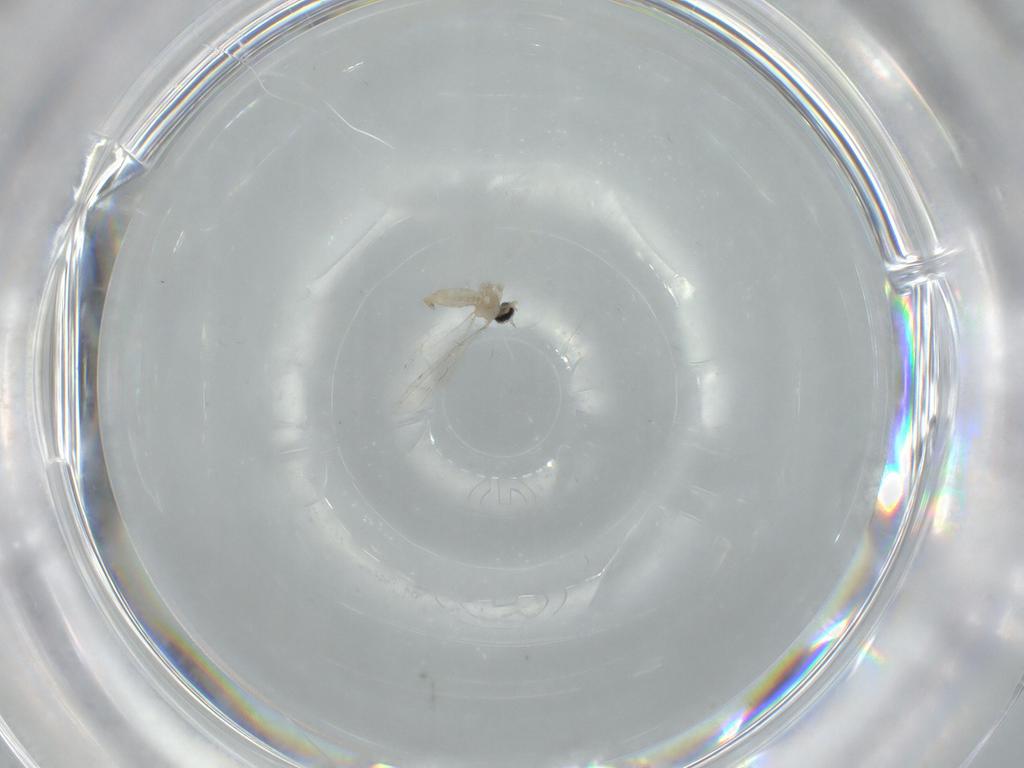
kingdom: Animalia
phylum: Arthropoda
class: Insecta
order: Diptera
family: Cecidomyiidae
